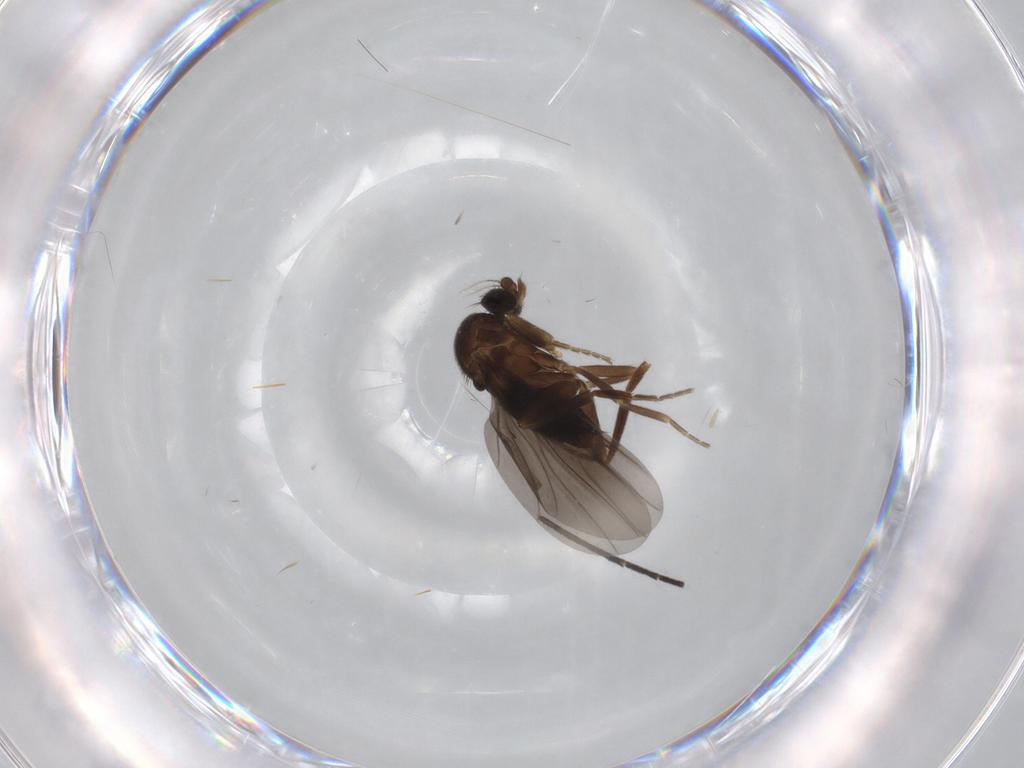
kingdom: Animalia
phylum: Arthropoda
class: Insecta
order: Diptera
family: Phoridae
